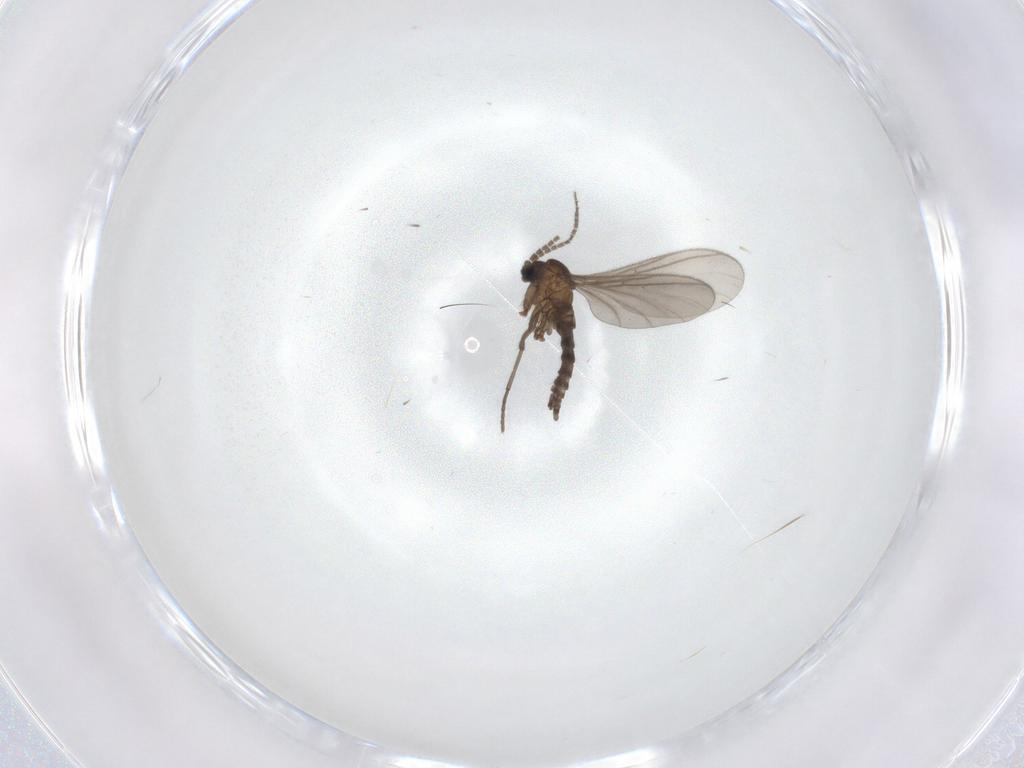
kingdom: Animalia
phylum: Arthropoda
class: Insecta
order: Diptera
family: Sciaridae
